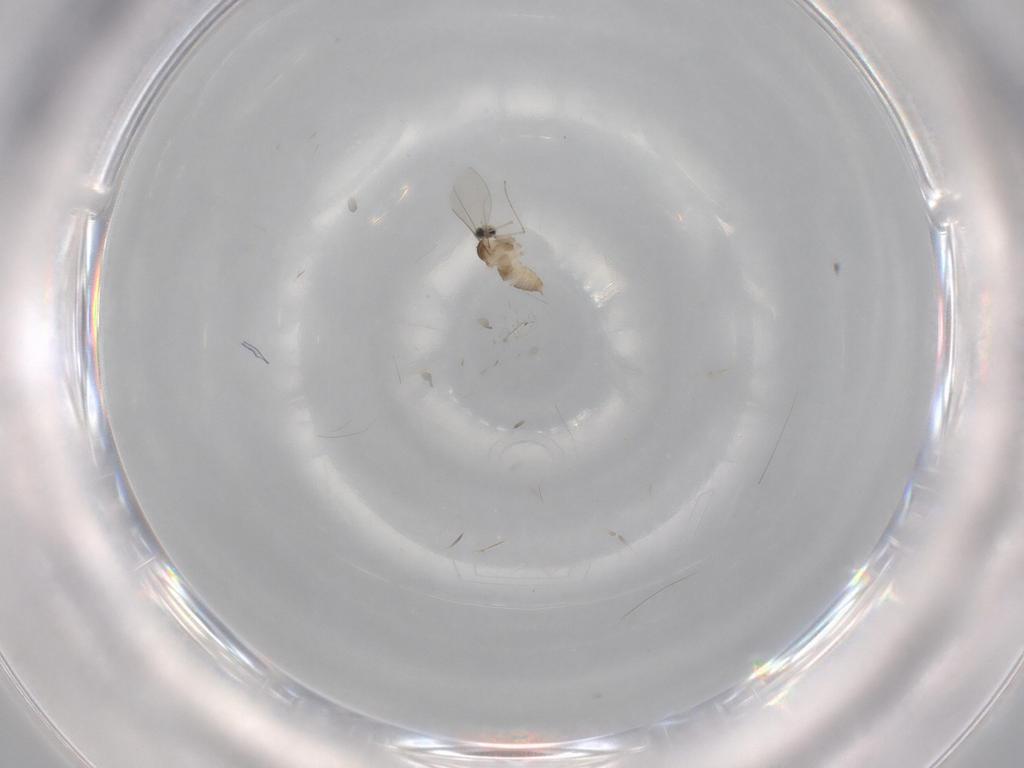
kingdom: Animalia
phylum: Arthropoda
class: Insecta
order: Diptera
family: Cecidomyiidae
